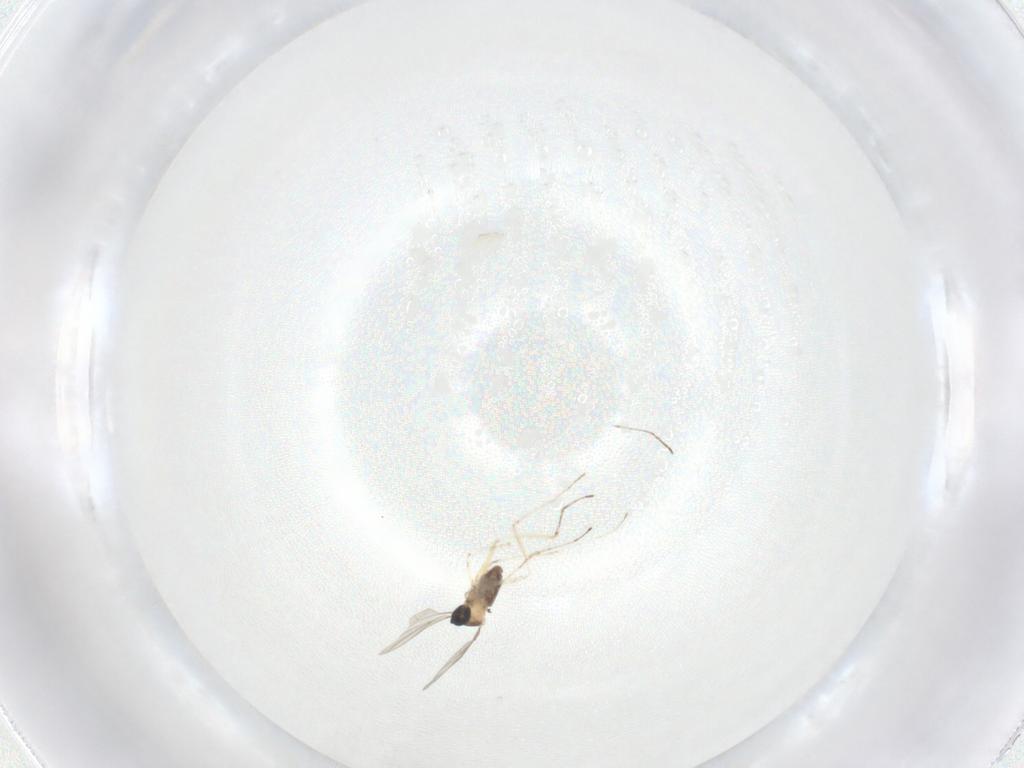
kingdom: Animalia
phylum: Arthropoda
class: Insecta
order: Diptera
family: Cecidomyiidae
